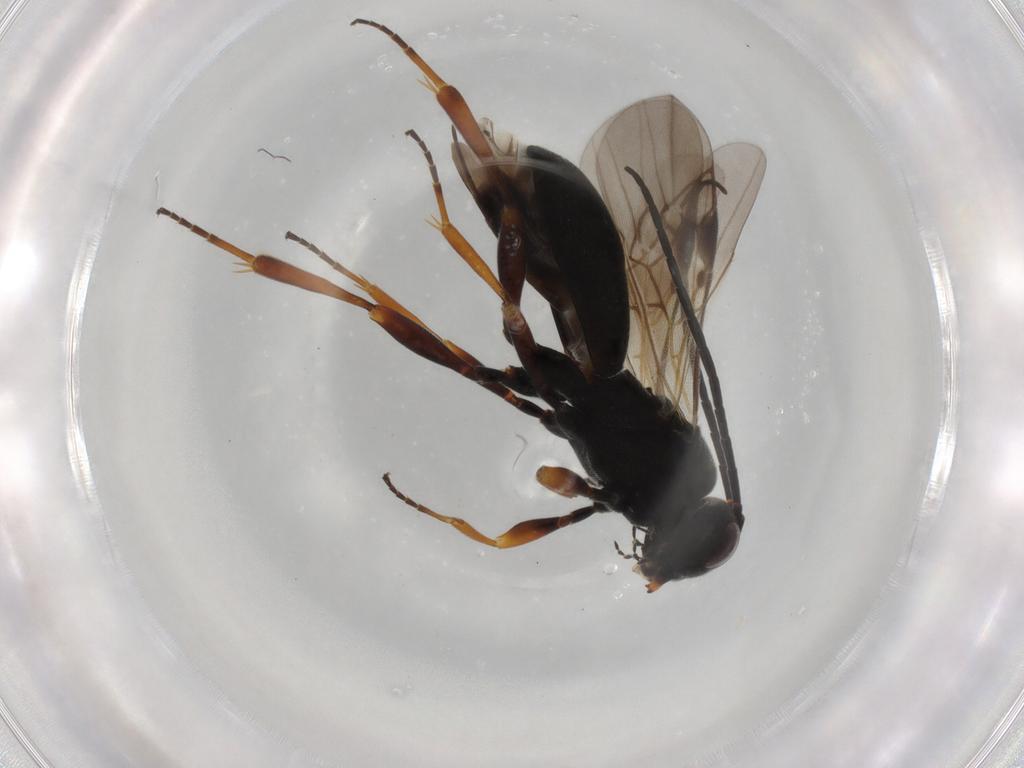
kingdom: Animalia
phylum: Arthropoda
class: Insecta
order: Hymenoptera
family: Braconidae
